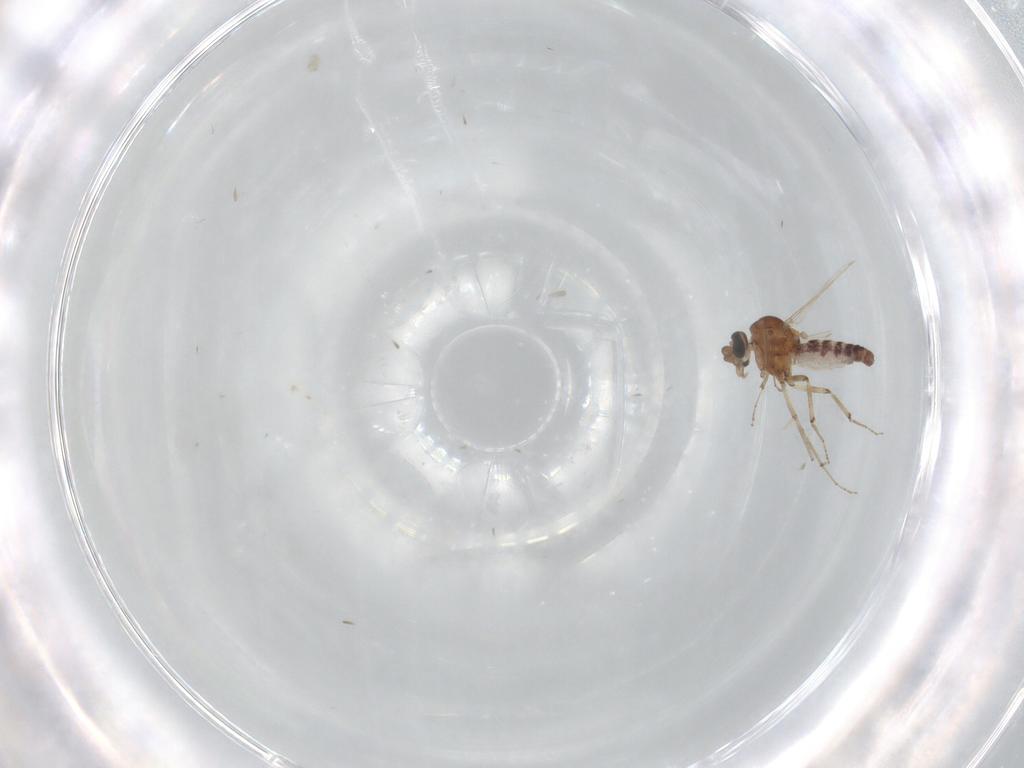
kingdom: Animalia
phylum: Arthropoda
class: Insecta
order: Diptera
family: Ceratopogonidae
